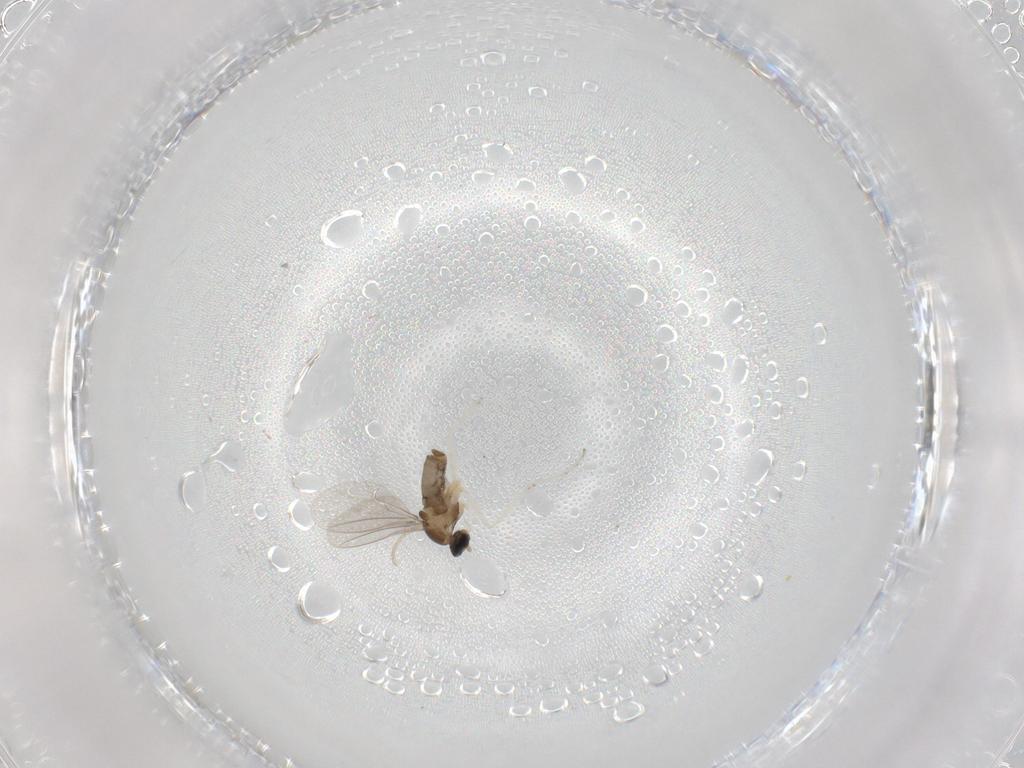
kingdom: Animalia
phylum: Arthropoda
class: Insecta
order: Diptera
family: Cecidomyiidae
